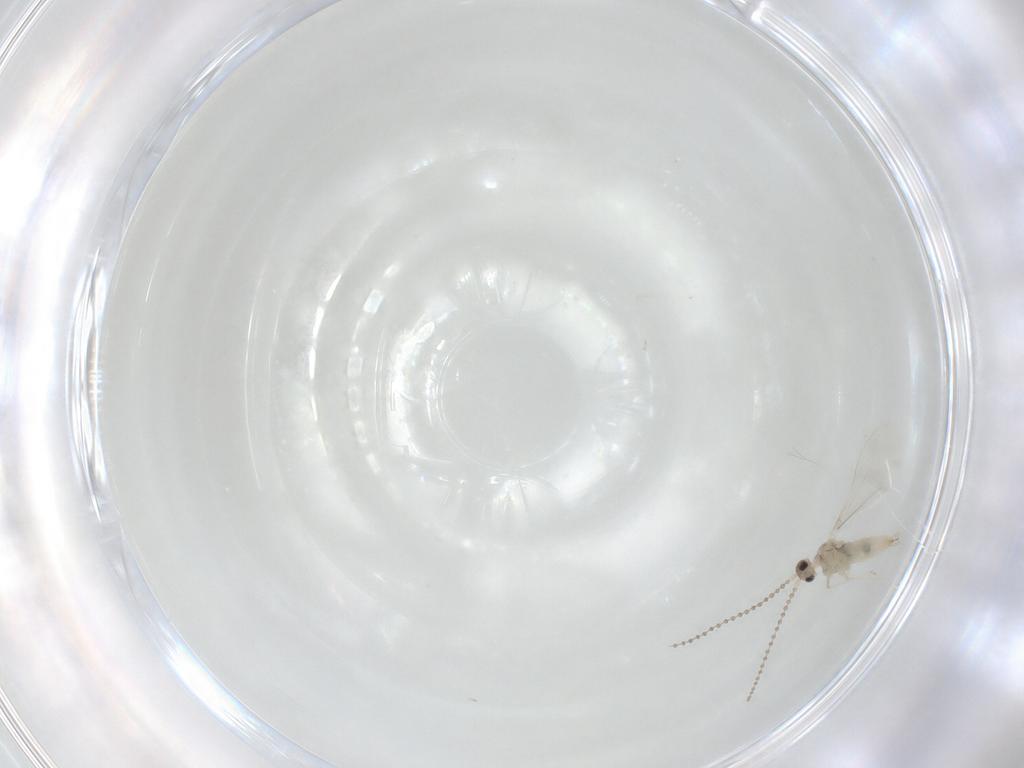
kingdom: Animalia
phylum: Arthropoda
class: Insecta
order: Diptera
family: Cecidomyiidae
